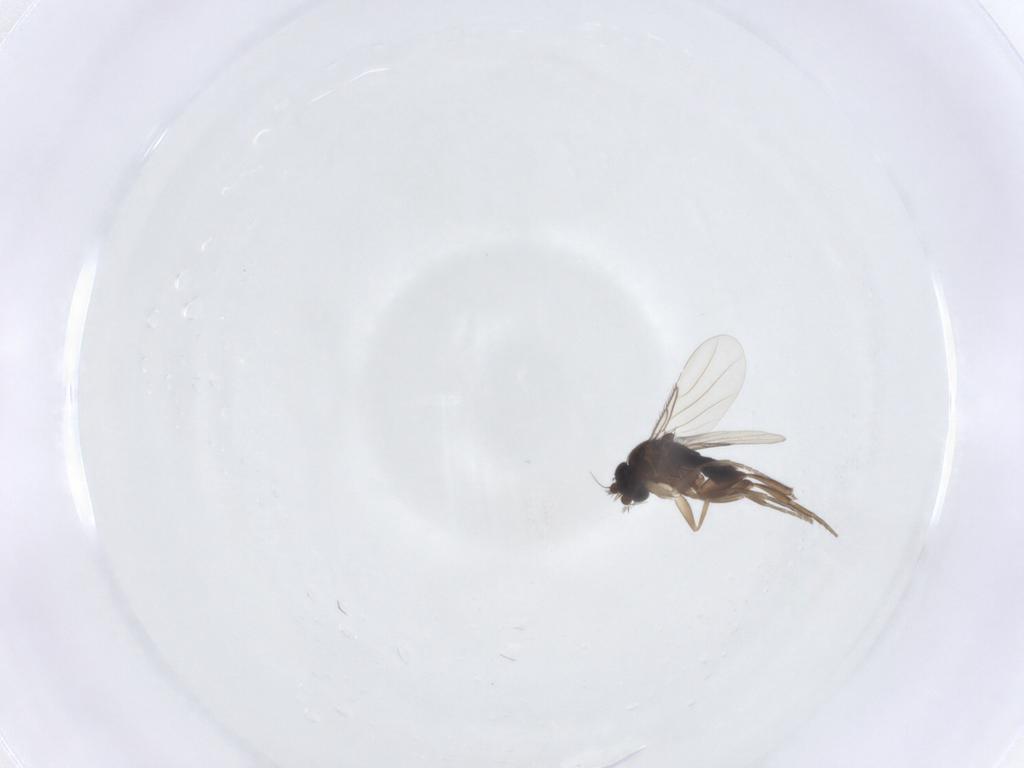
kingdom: Animalia
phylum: Arthropoda
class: Insecta
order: Diptera
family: Phoridae
